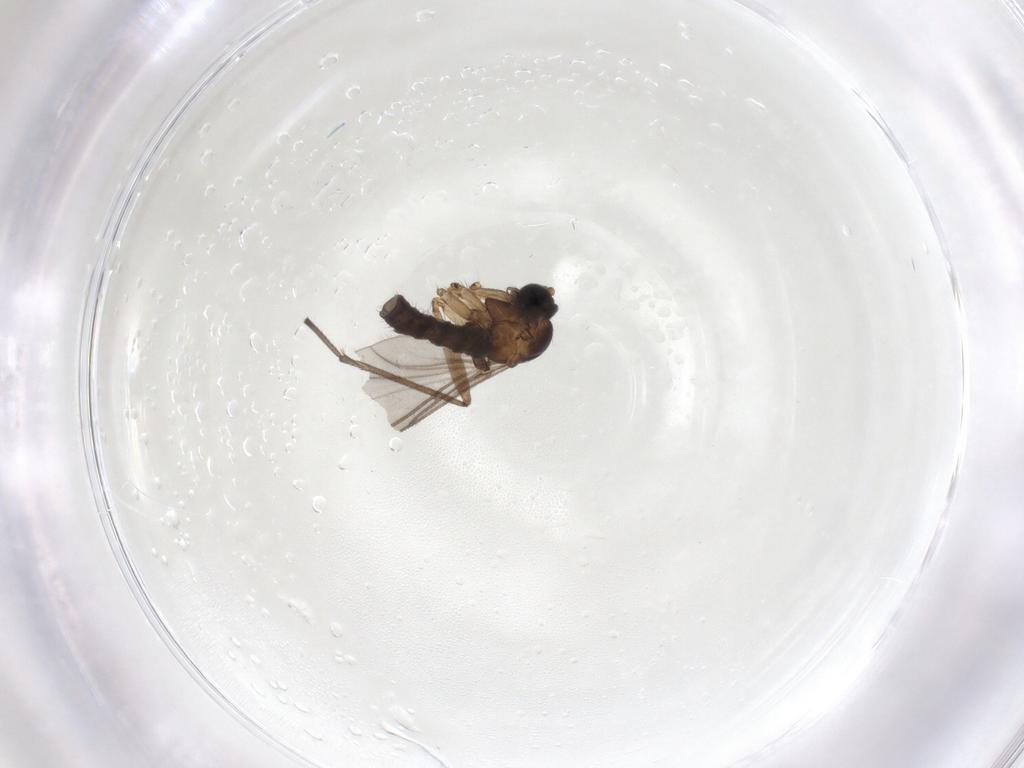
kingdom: Animalia
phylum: Arthropoda
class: Insecta
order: Diptera
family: Sciaridae
